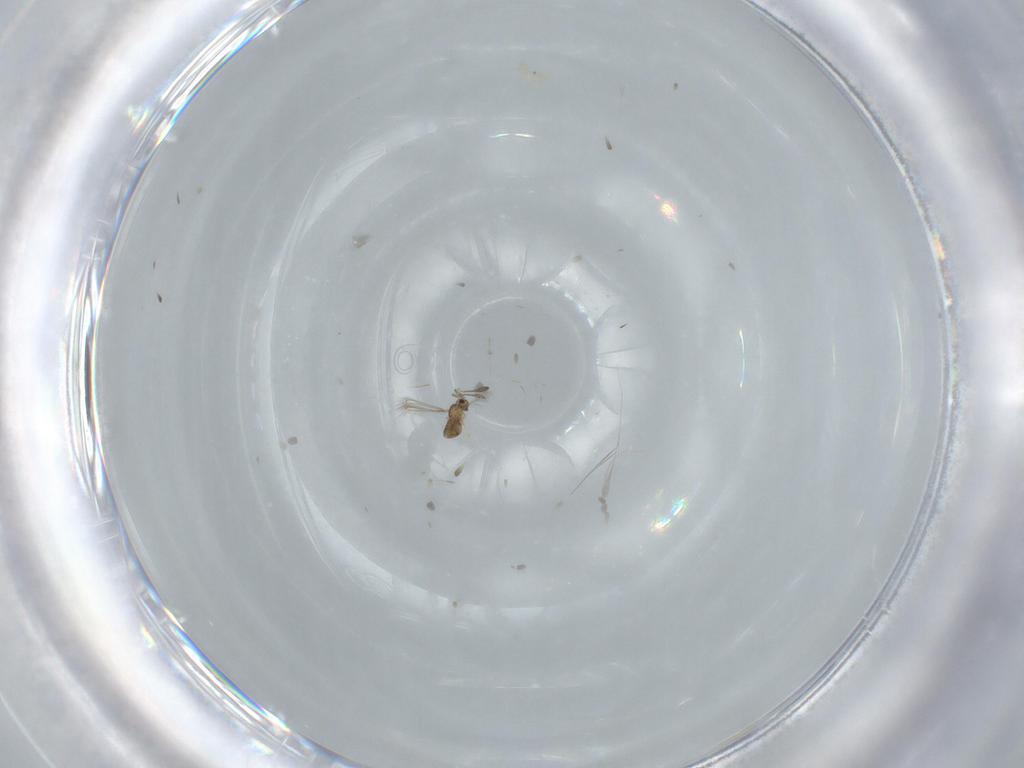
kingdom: Animalia
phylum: Arthropoda
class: Insecta
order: Hymenoptera
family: Mymaridae
